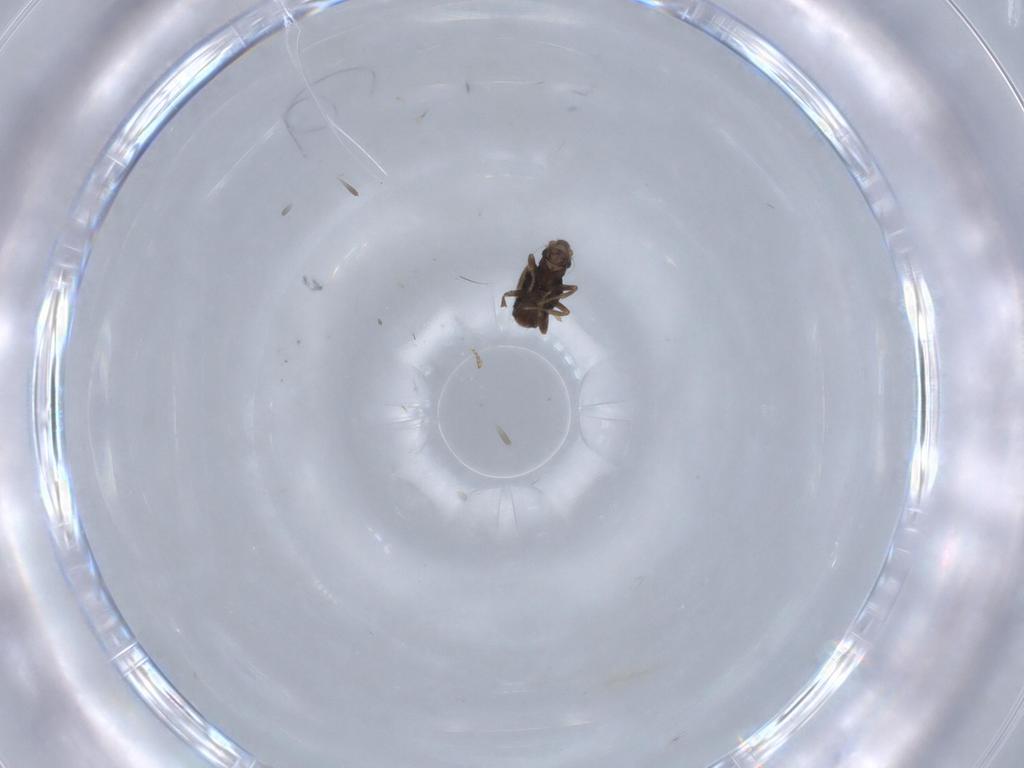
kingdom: Animalia
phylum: Arthropoda
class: Insecta
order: Diptera
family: Phoridae
